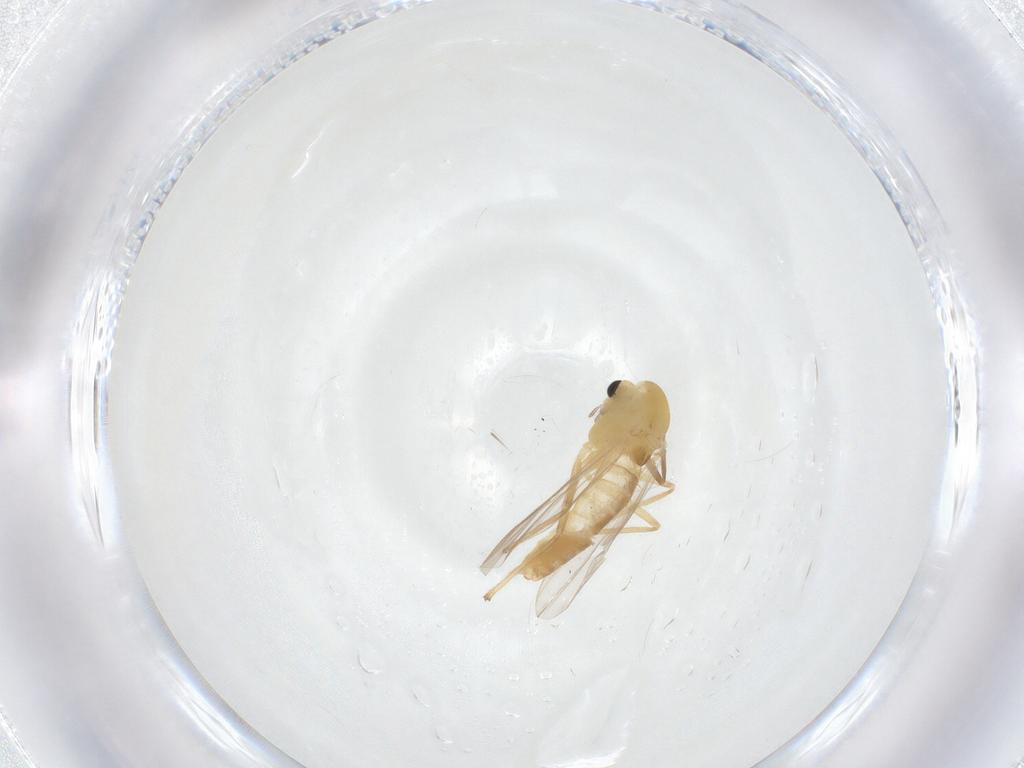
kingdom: Animalia
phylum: Arthropoda
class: Insecta
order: Diptera
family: Chironomidae
